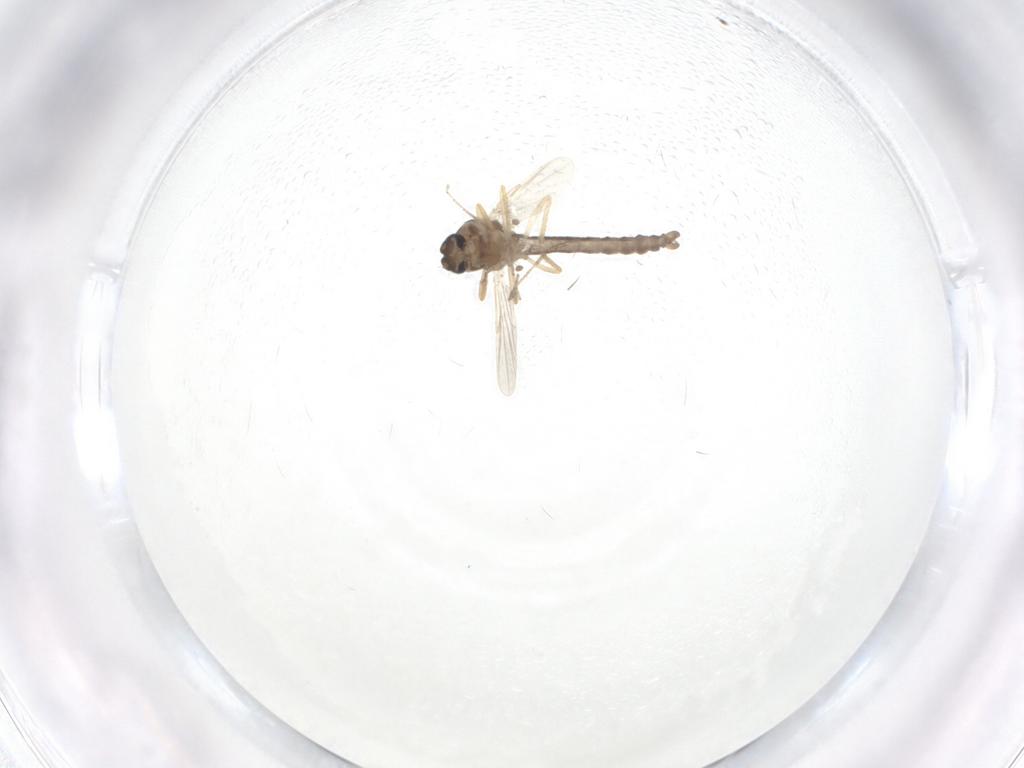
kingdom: Animalia
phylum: Arthropoda
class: Insecta
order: Diptera
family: Ceratopogonidae
